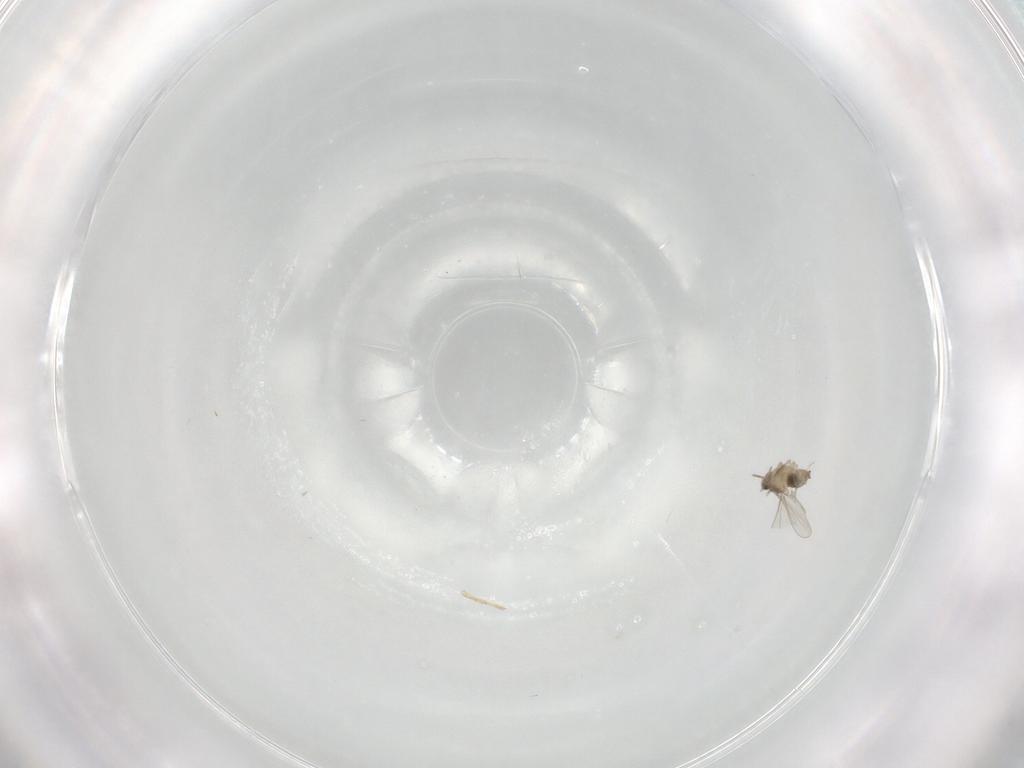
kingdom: Animalia
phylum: Arthropoda
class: Insecta
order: Diptera
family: Cecidomyiidae
